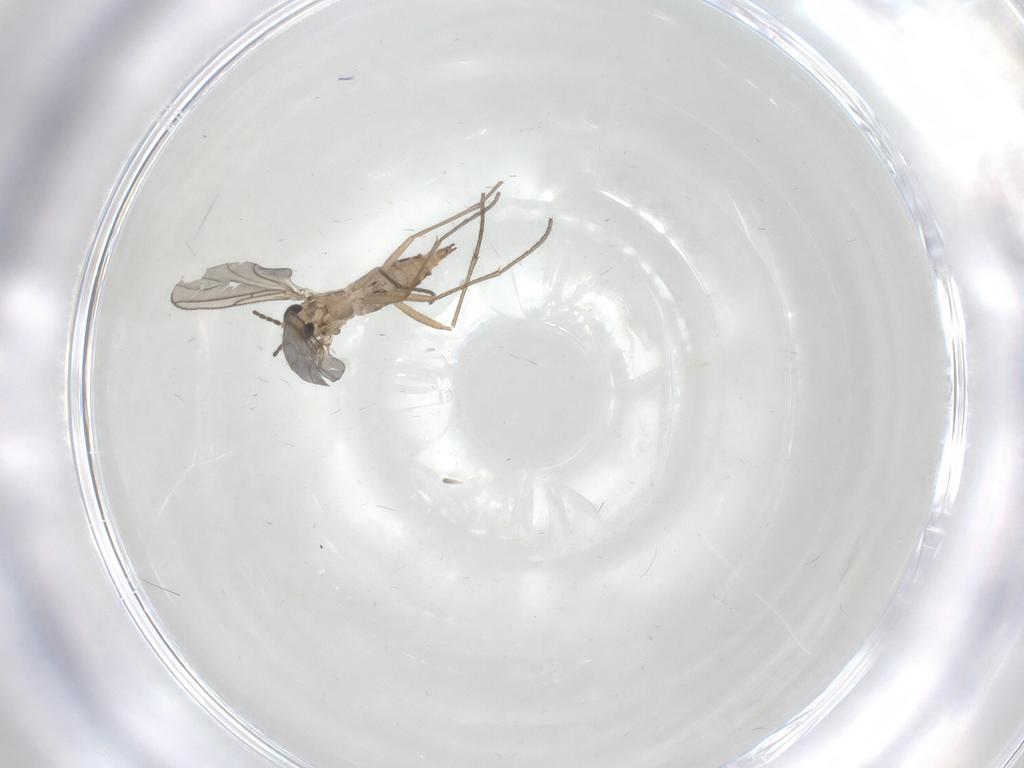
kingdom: Animalia
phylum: Arthropoda
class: Insecta
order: Diptera
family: Sciaridae
